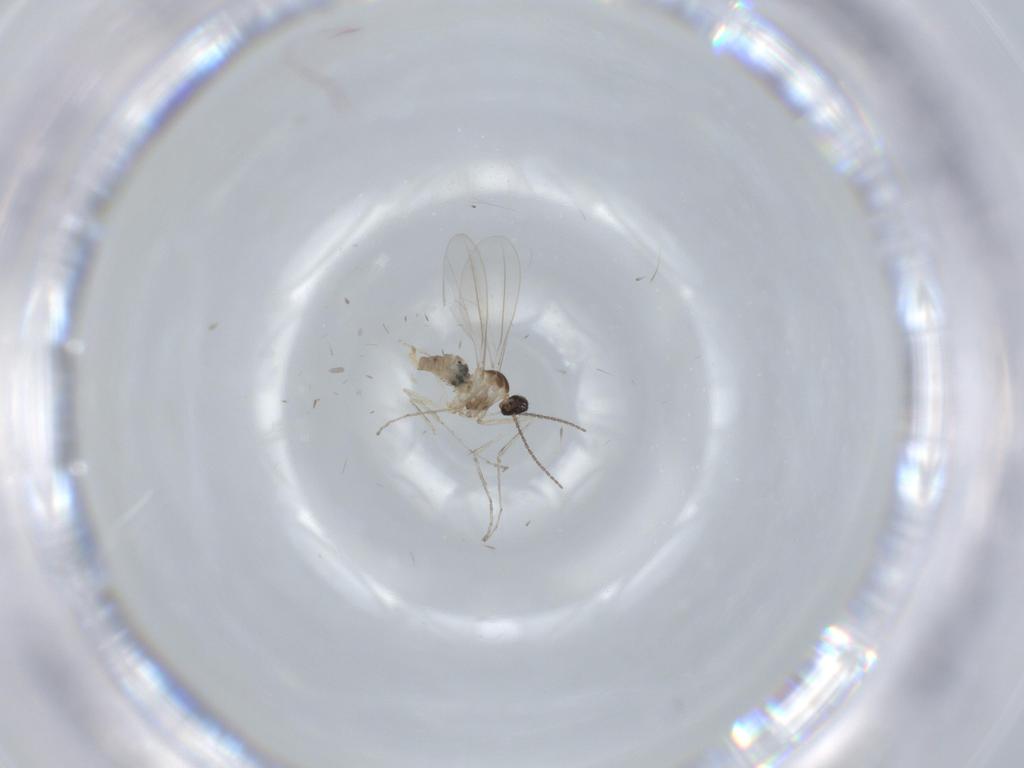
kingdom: Animalia
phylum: Arthropoda
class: Insecta
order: Diptera
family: Cecidomyiidae
